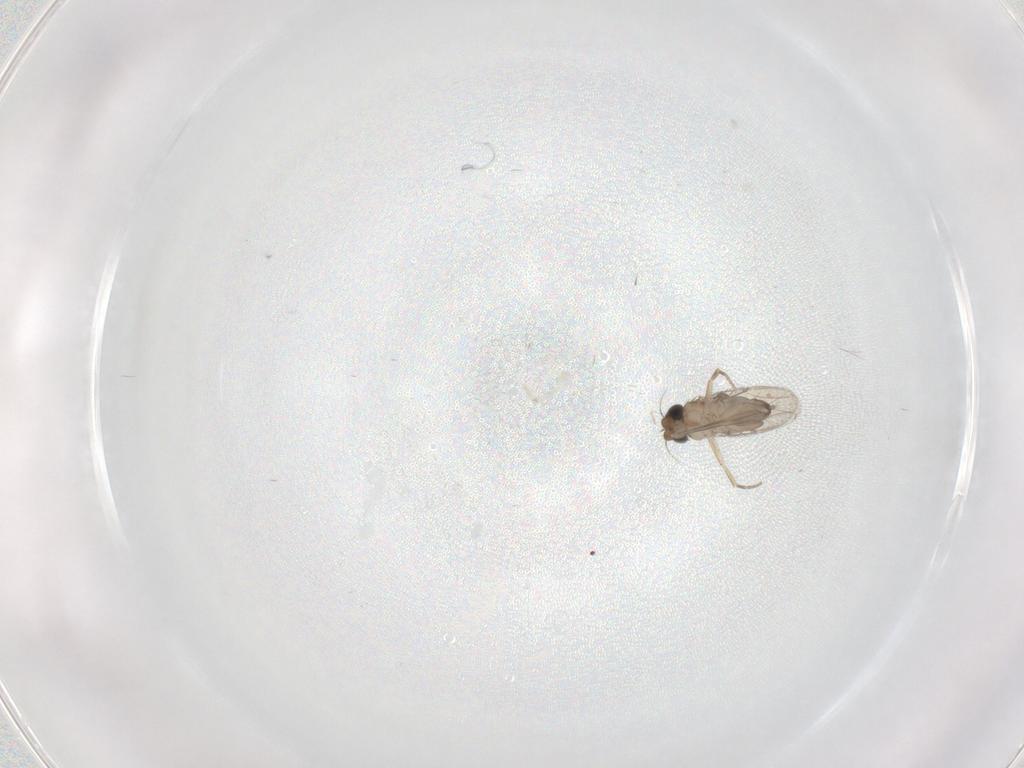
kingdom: Animalia
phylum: Arthropoda
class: Insecta
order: Diptera
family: Phoridae
